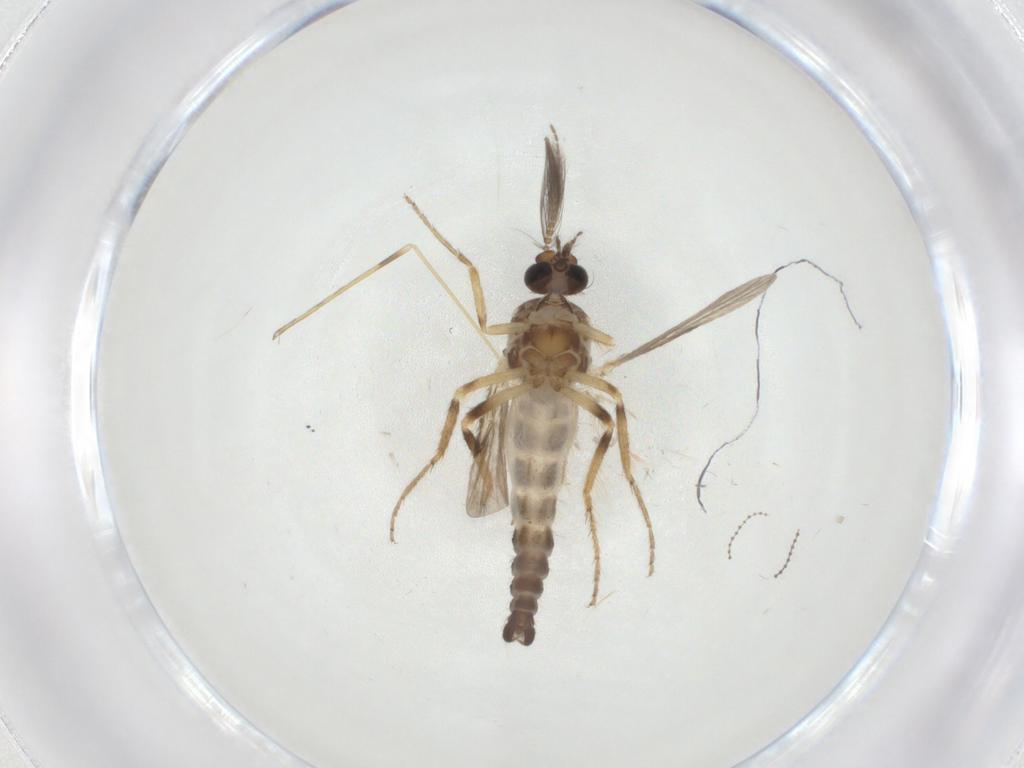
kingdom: Animalia
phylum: Arthropoda
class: Insecta
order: Diptera
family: Ceratopogonidae
